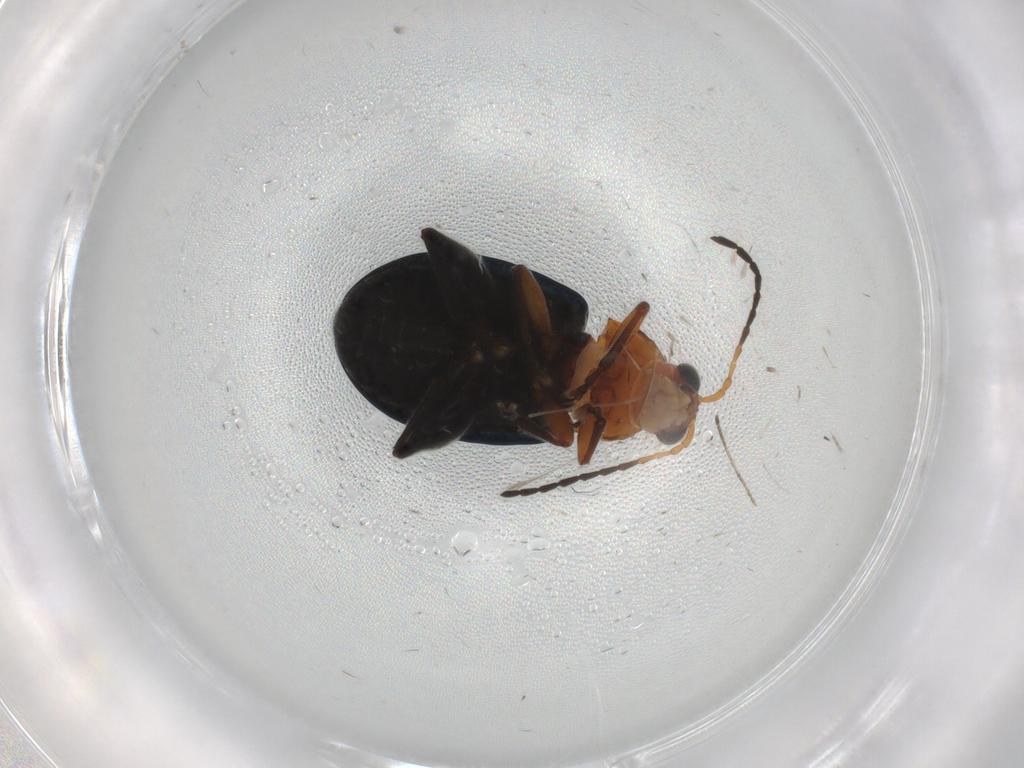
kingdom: Animalia
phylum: Arthropoda
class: Insecta
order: Coleoptera
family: Chrysomelidae
